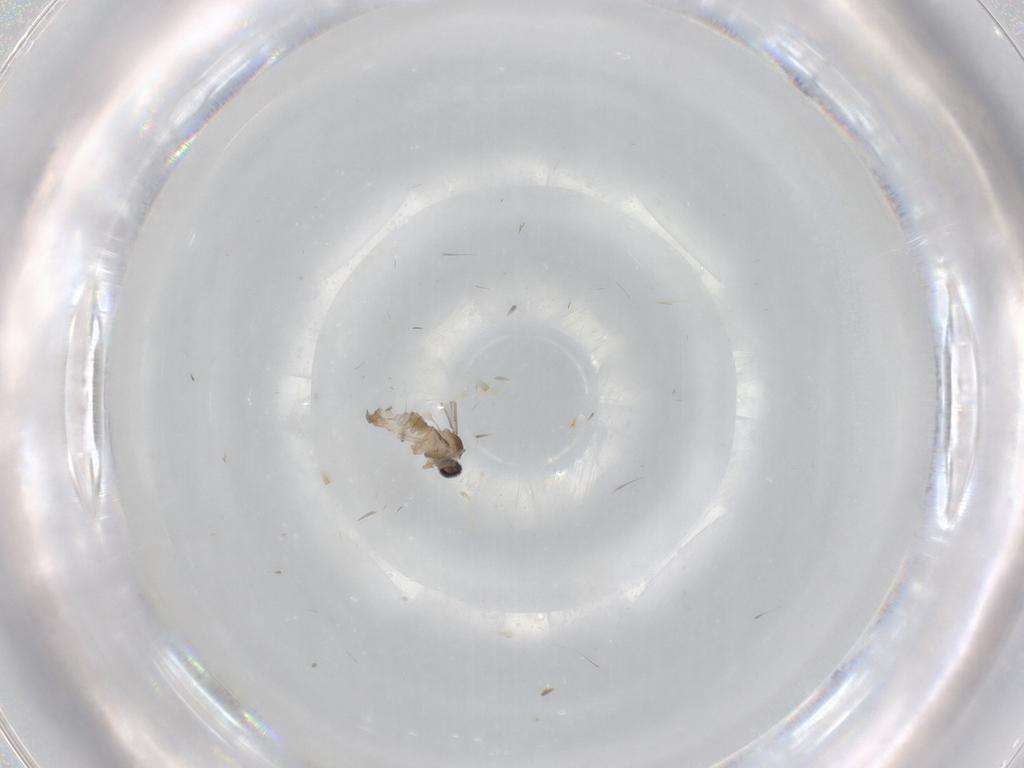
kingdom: Animalia
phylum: Arthropoda
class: Insecta
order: Diptera
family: Cecidomyiidae
